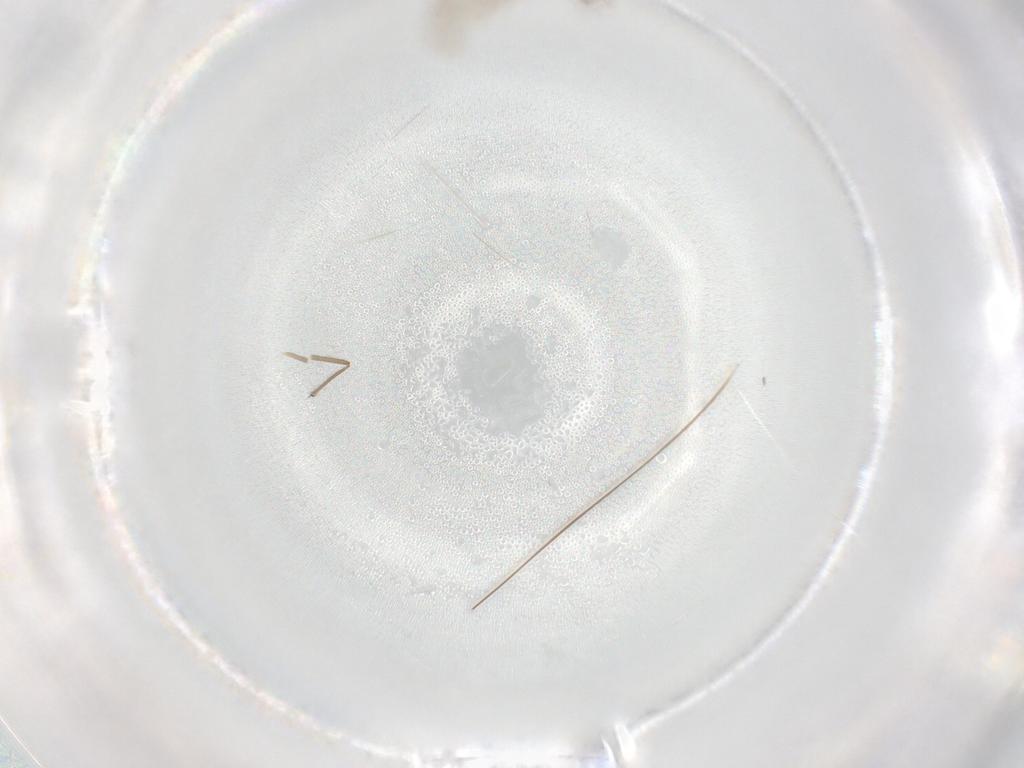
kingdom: Animalia
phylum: Arthropoda
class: Insecta
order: Diptera
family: Chironomidae
